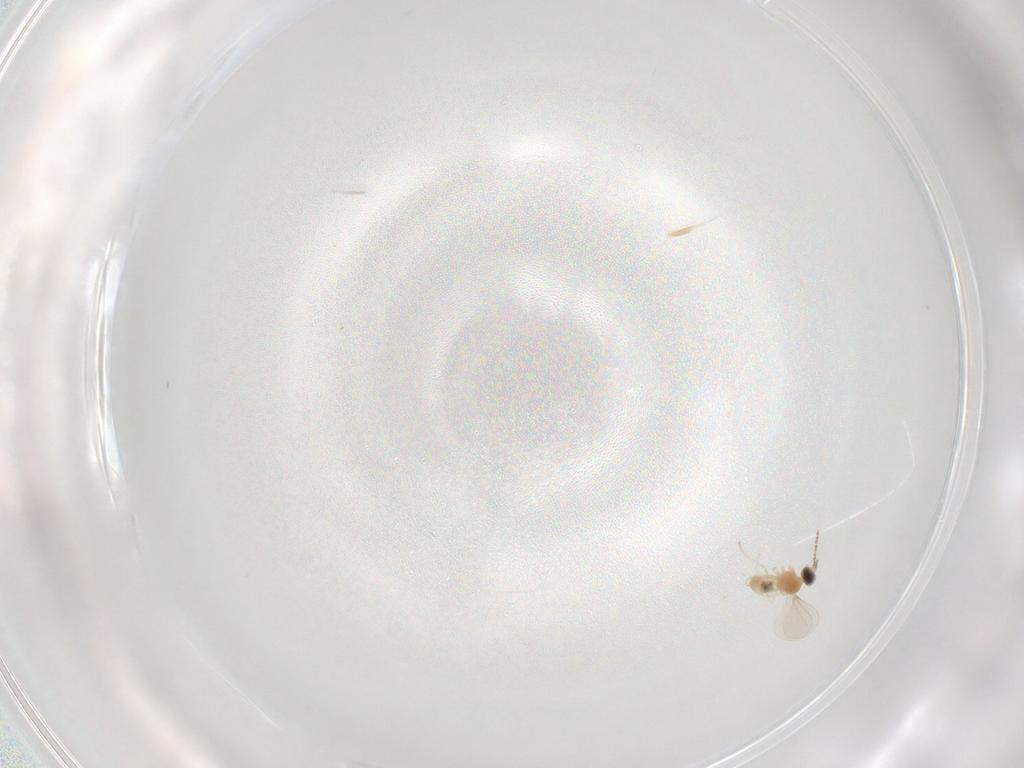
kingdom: Animalia
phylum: Arthropoda
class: Insecta
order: Diptera
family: Cecidomyiidae
